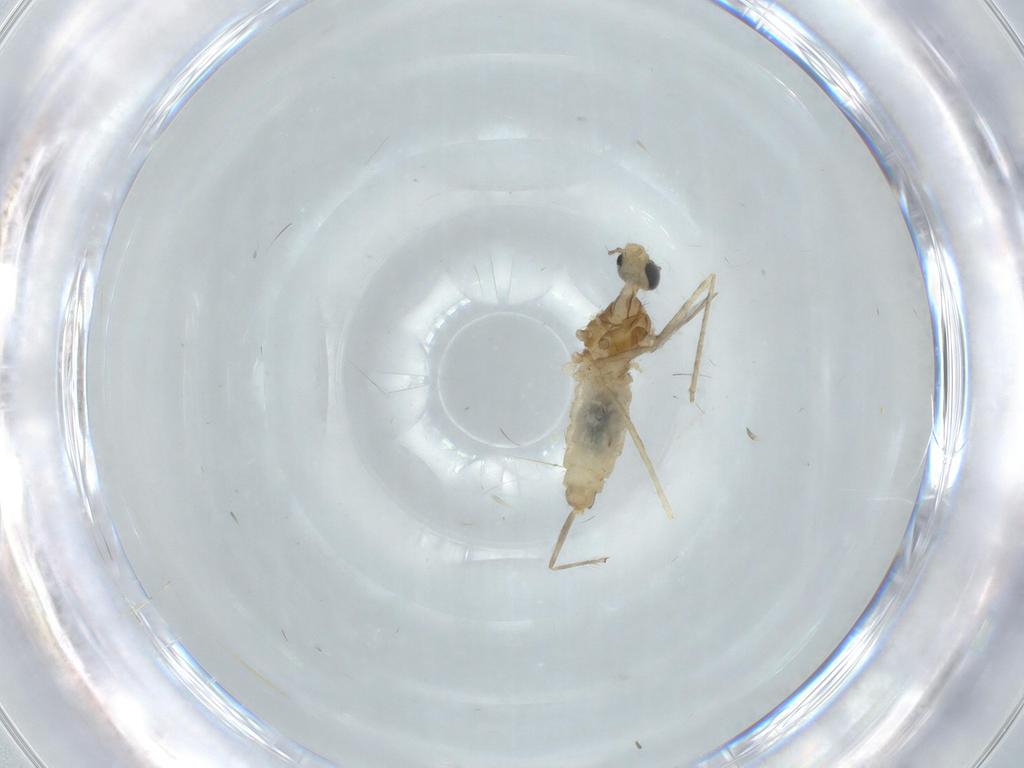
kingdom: Animalia
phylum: Arthropoda
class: Insecta
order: Diptera
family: Cecidomyiidae
